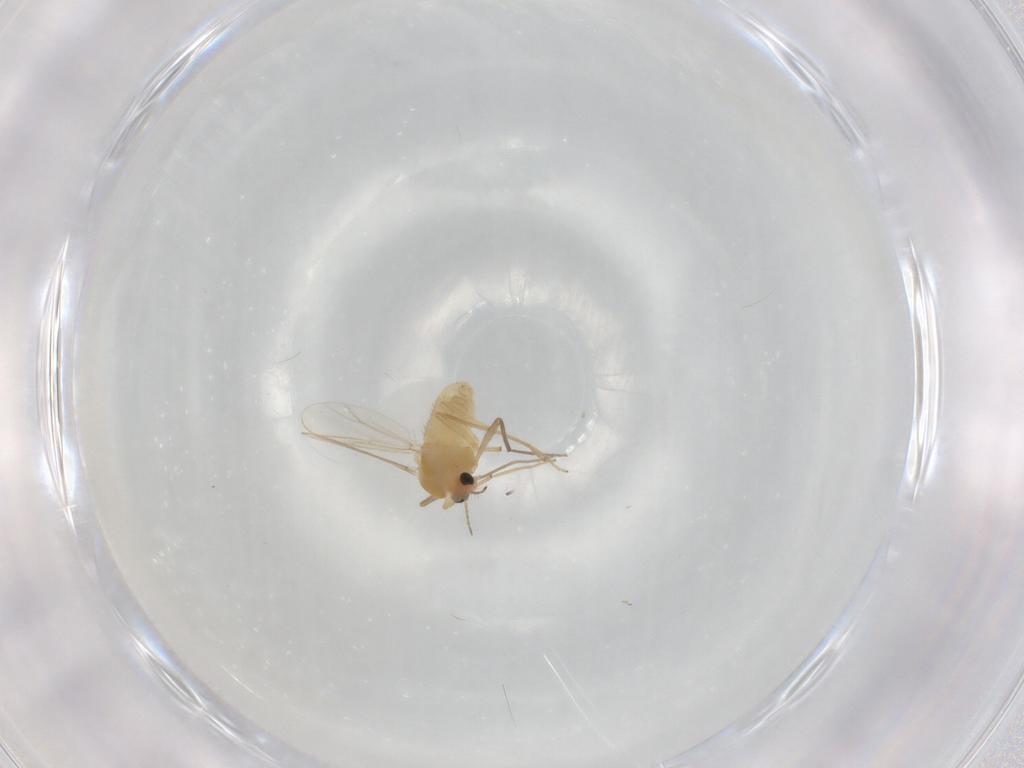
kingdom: Animalia
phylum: Arthropoda
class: Insecta
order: Diptera
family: Chironomidae
